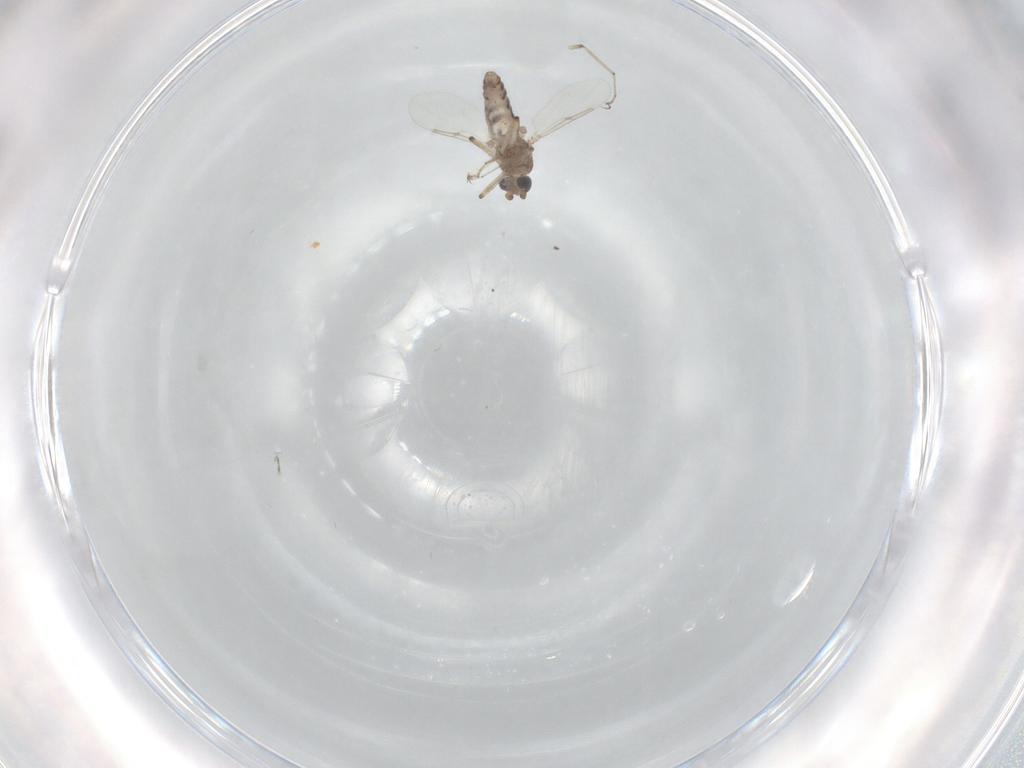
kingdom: Animalia
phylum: Arthropoda
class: Insecta
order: Diptera
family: Ceratopogonidae
